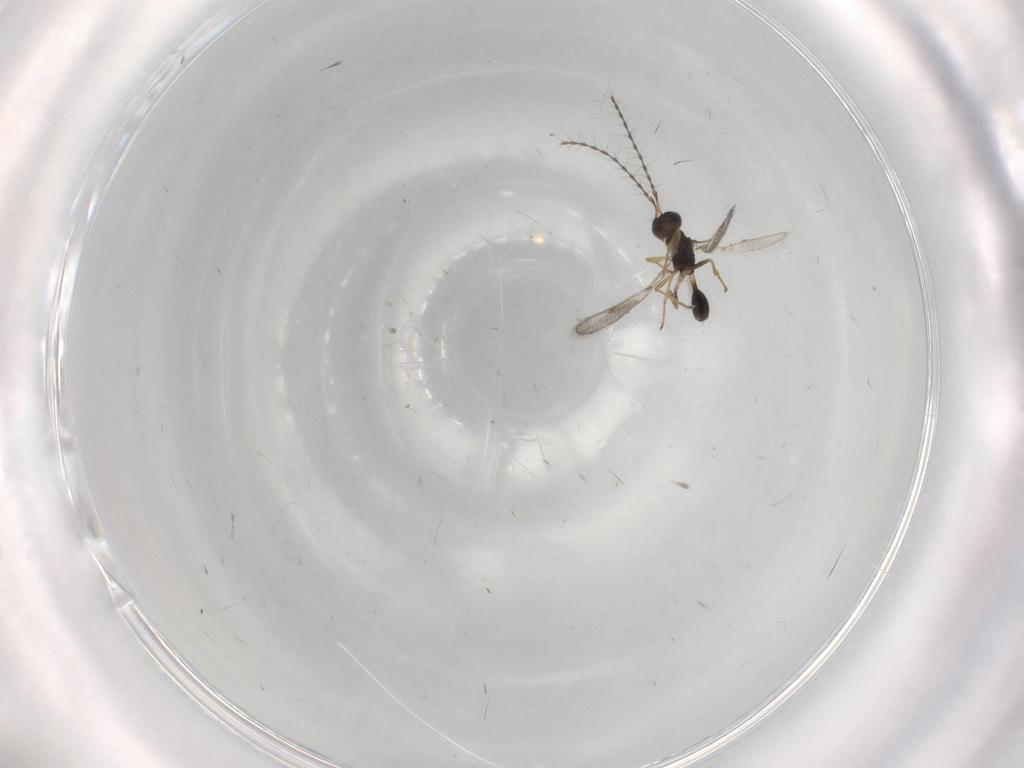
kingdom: Animalia
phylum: Arthropoda
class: Insecta
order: Hymenoptera
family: Diparidae
